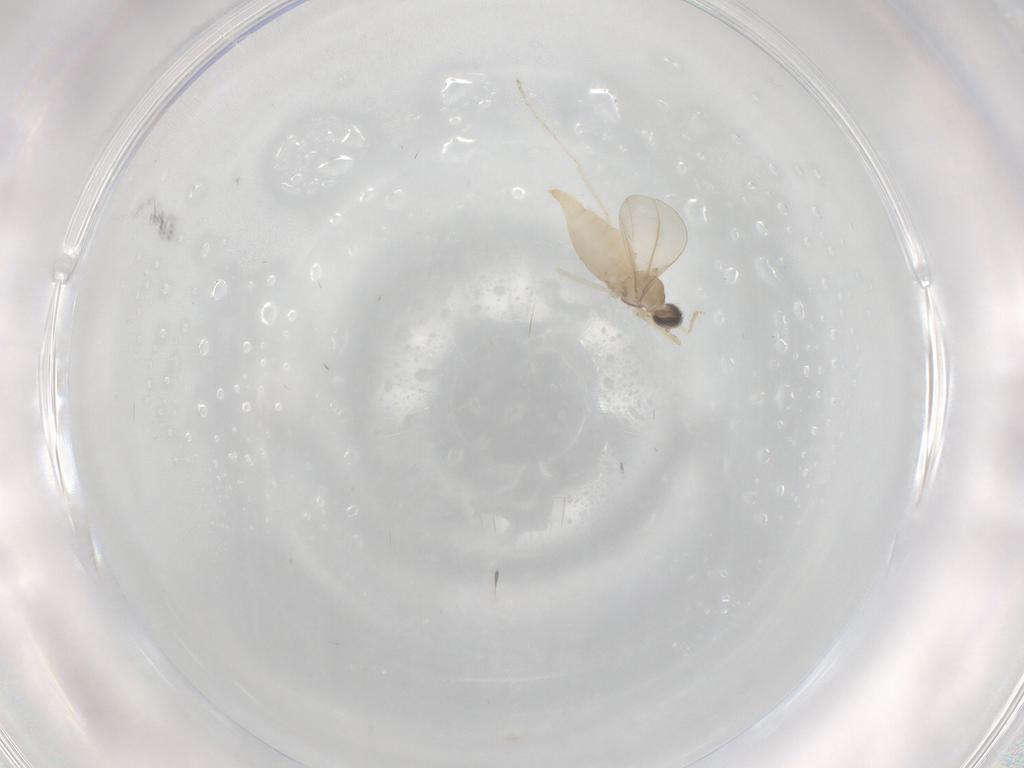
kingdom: Animalia
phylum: Arthropoda
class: Insecta
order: Diptera
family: Cecidomyiidae
